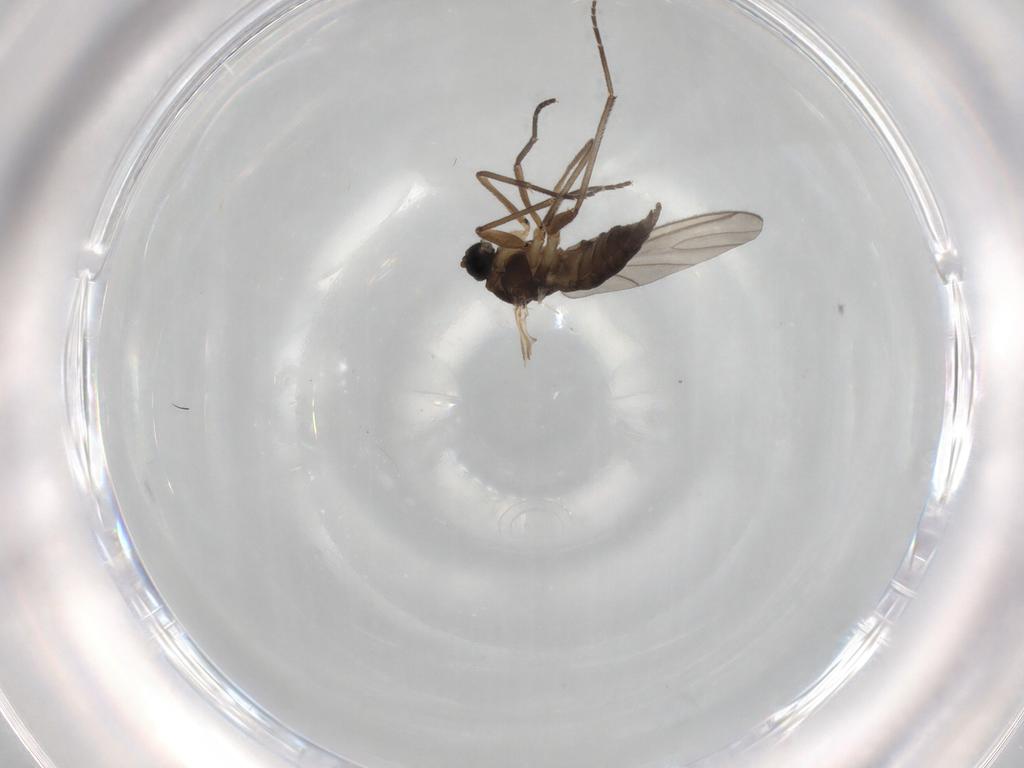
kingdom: Animalia
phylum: Arthropoda
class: Insecta
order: Diptera
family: Sciaridae
